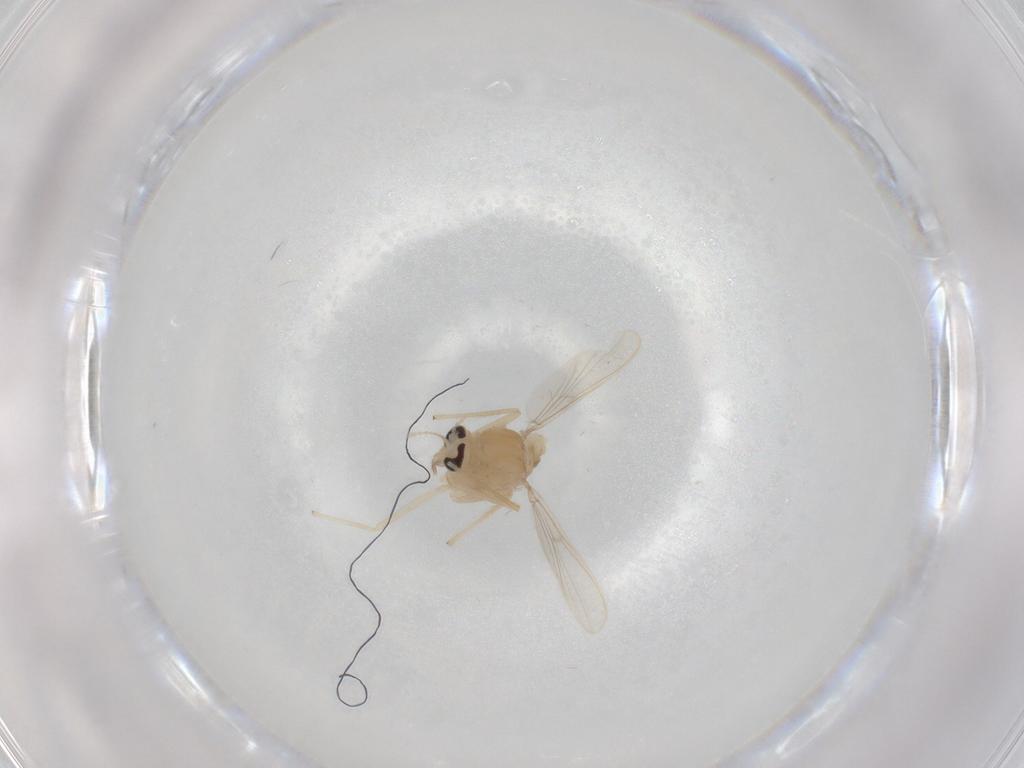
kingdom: Animalia
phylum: Arthropoda
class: Insecta
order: Diptera
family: Chironomidae
